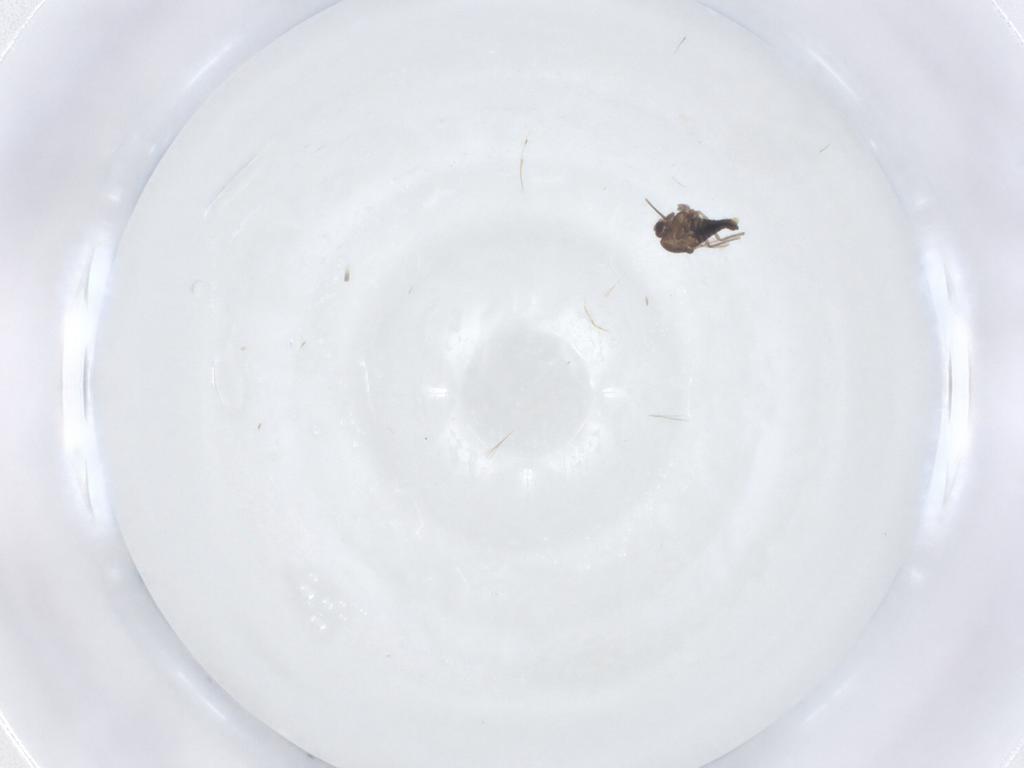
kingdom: Animalia
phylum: Arthropoda
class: Insecta
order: Diptera
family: Chironomidae
